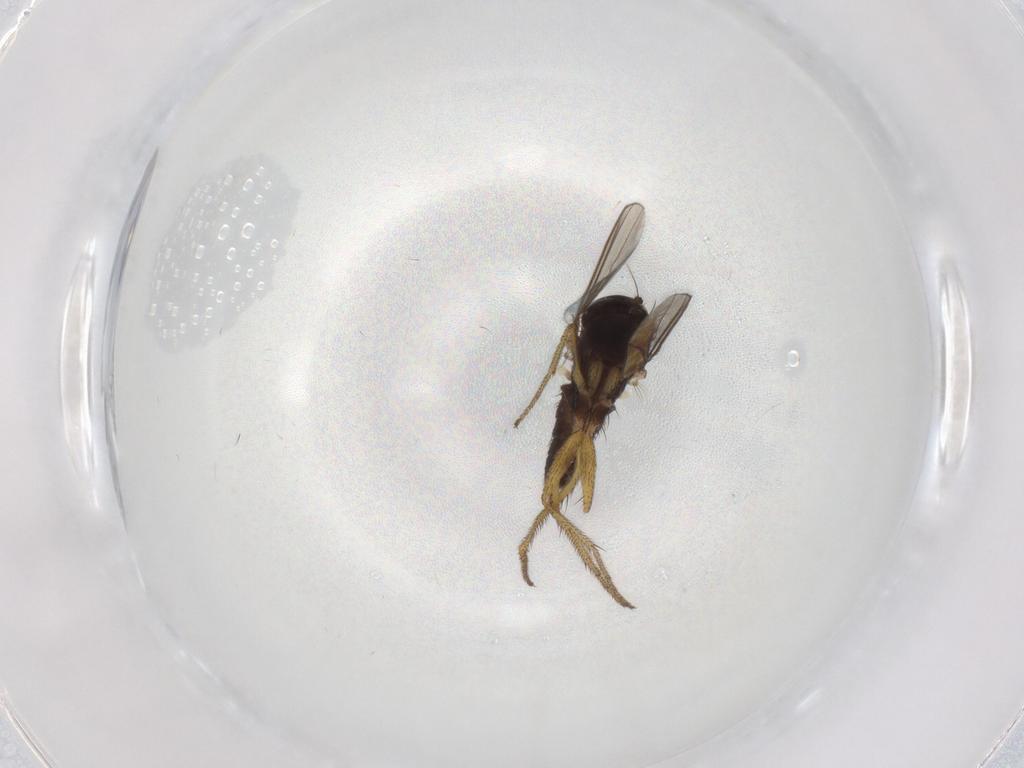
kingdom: Animalia
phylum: Arthropoda
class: Insecta
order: Diptera
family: Dolichopodidae
